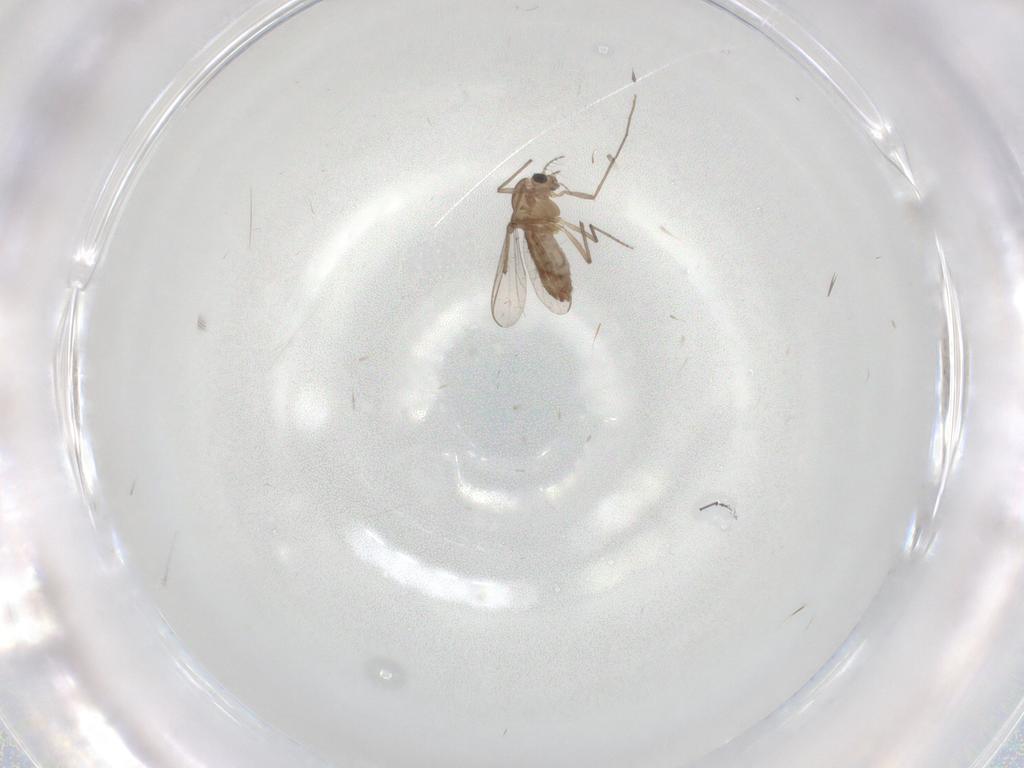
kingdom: Animalia
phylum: Arthropoda
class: Insecta
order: Diptera
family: Chironomidae
